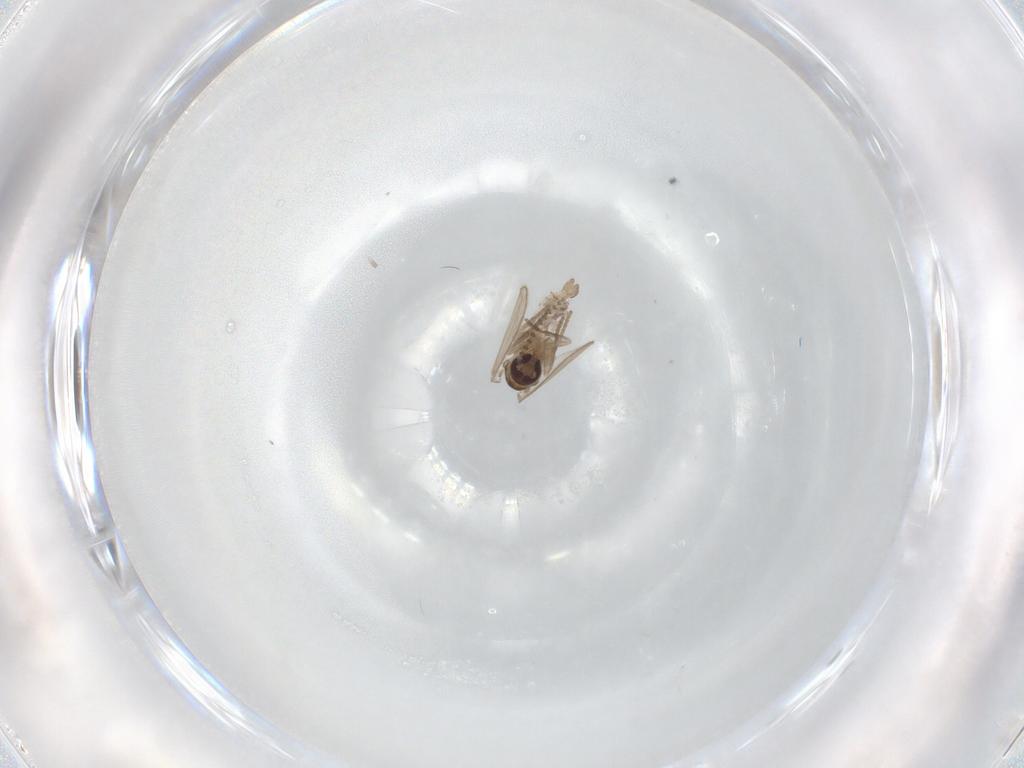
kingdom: Animalia
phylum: Arthropoda
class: Insecta
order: Diptera
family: Psychodidae
